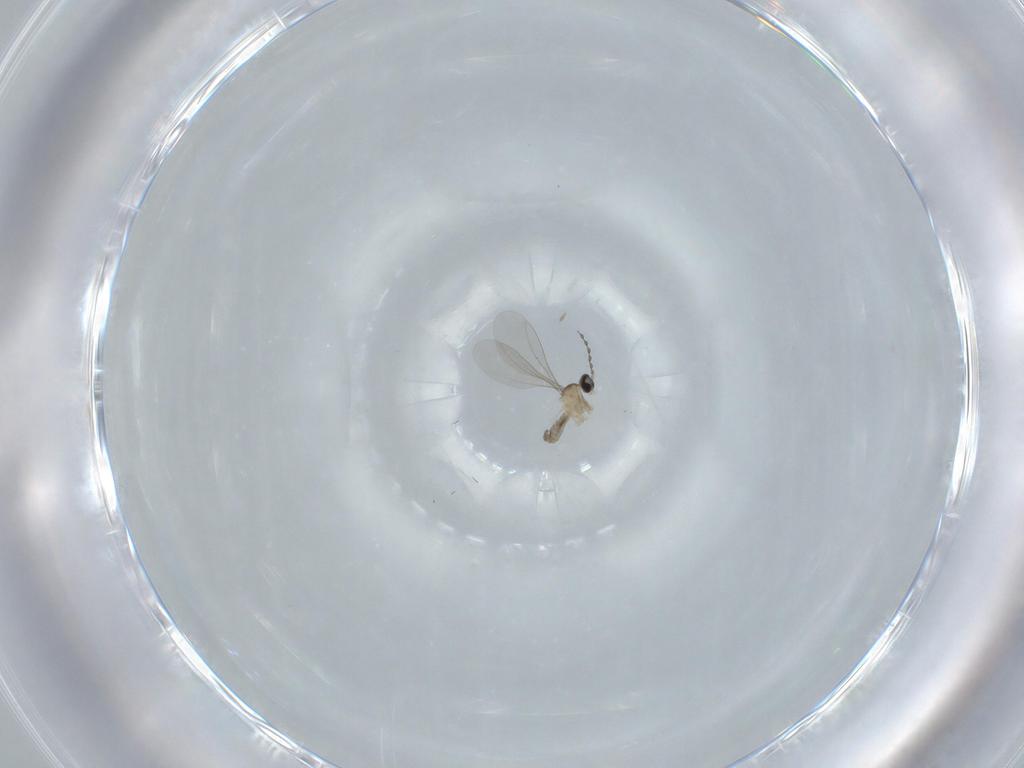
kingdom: Animalia
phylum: Arthropoda
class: Insecta
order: Diptera
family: Cecidomyiidae
